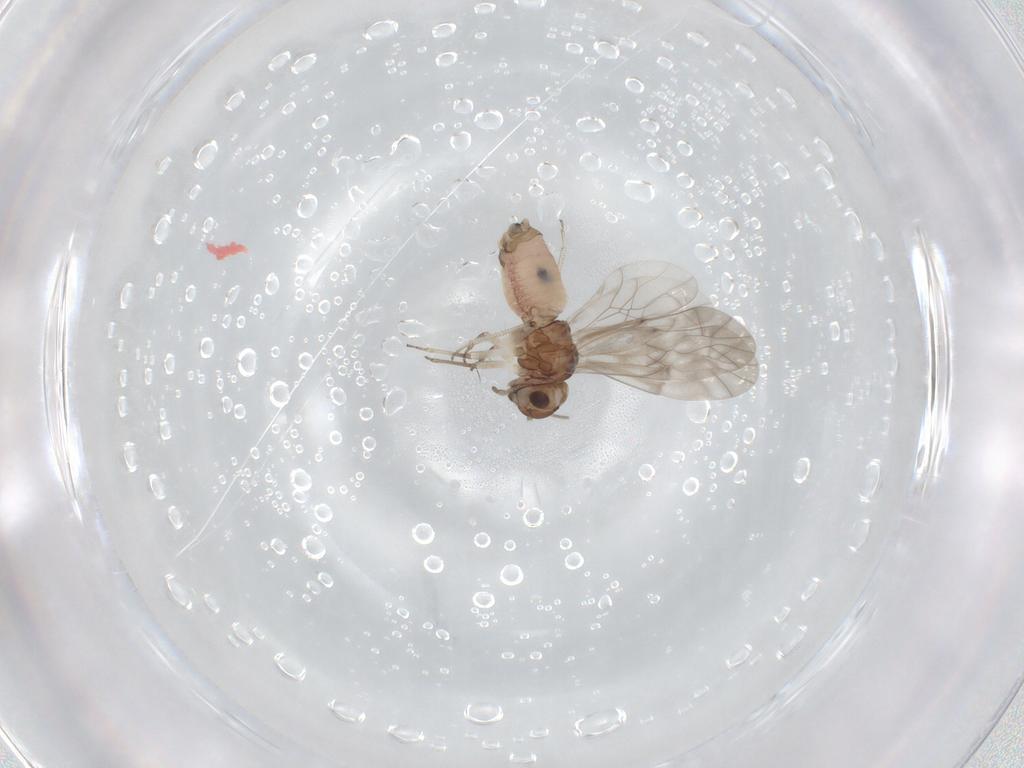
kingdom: Animalia
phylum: Arthropoda
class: Insecta
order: Psocodea
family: Peripsocidae
